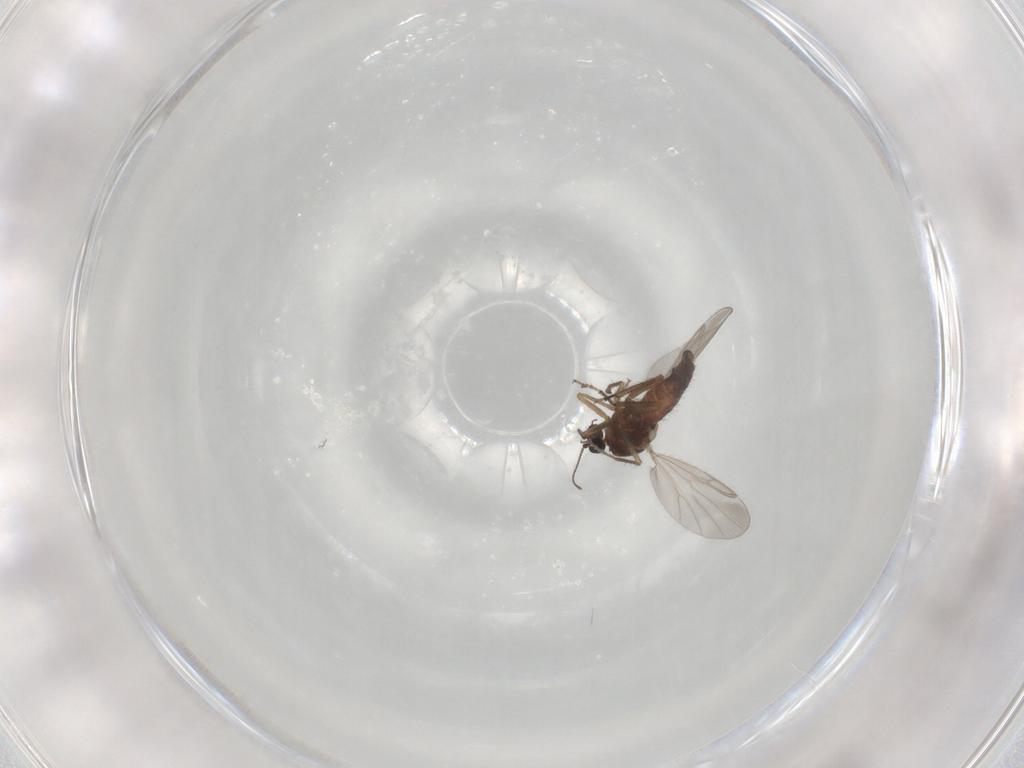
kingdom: Animalia
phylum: Arthropoda
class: Insecta
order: Diptera
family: Ceratopogonidae
